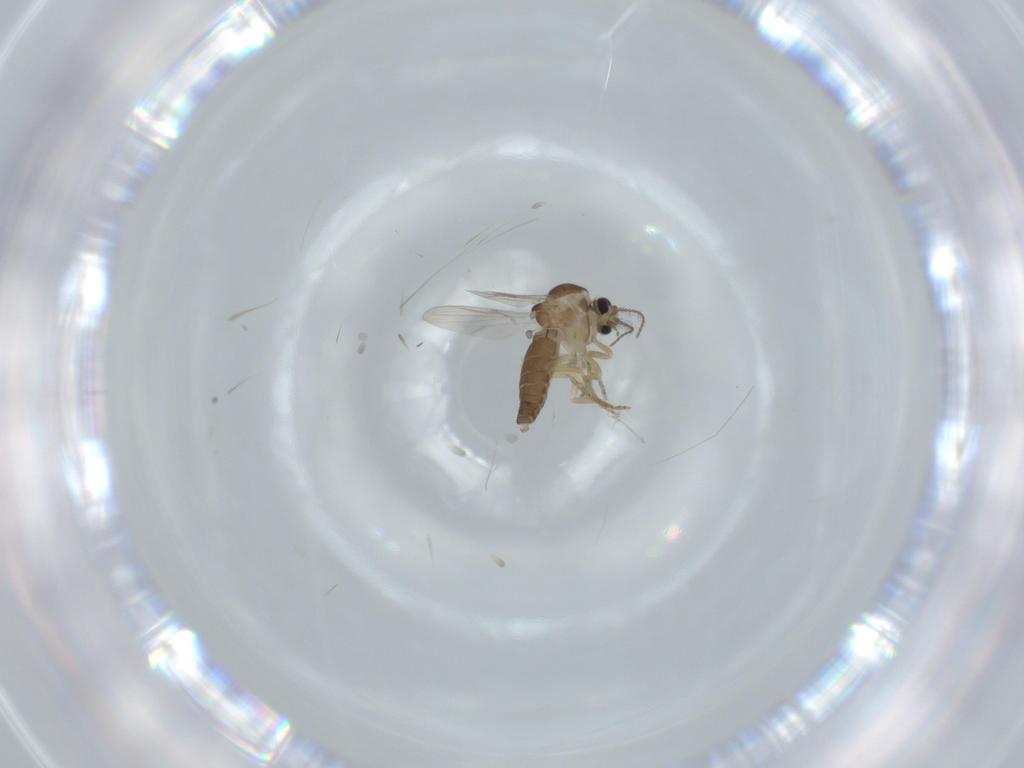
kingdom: Animalia
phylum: Arthropoda
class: Insecta
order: Diptera
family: Ceratopogonidae
